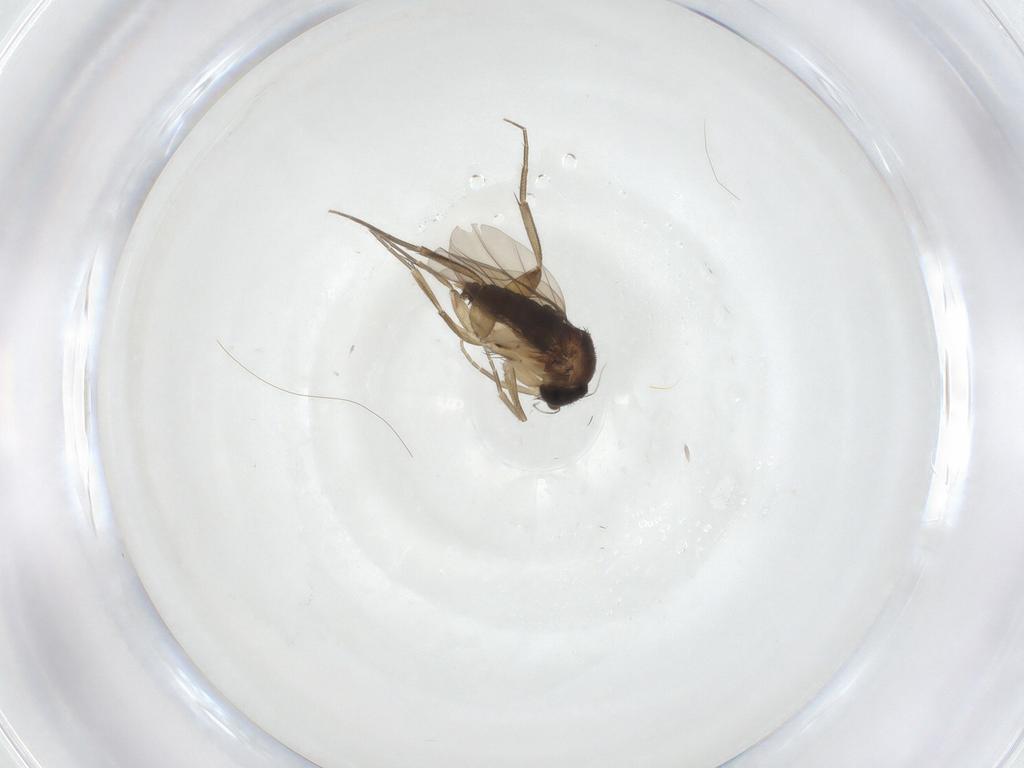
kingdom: Animalia
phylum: Arthropoda
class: Insecta
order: Diptera
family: Phoridae
